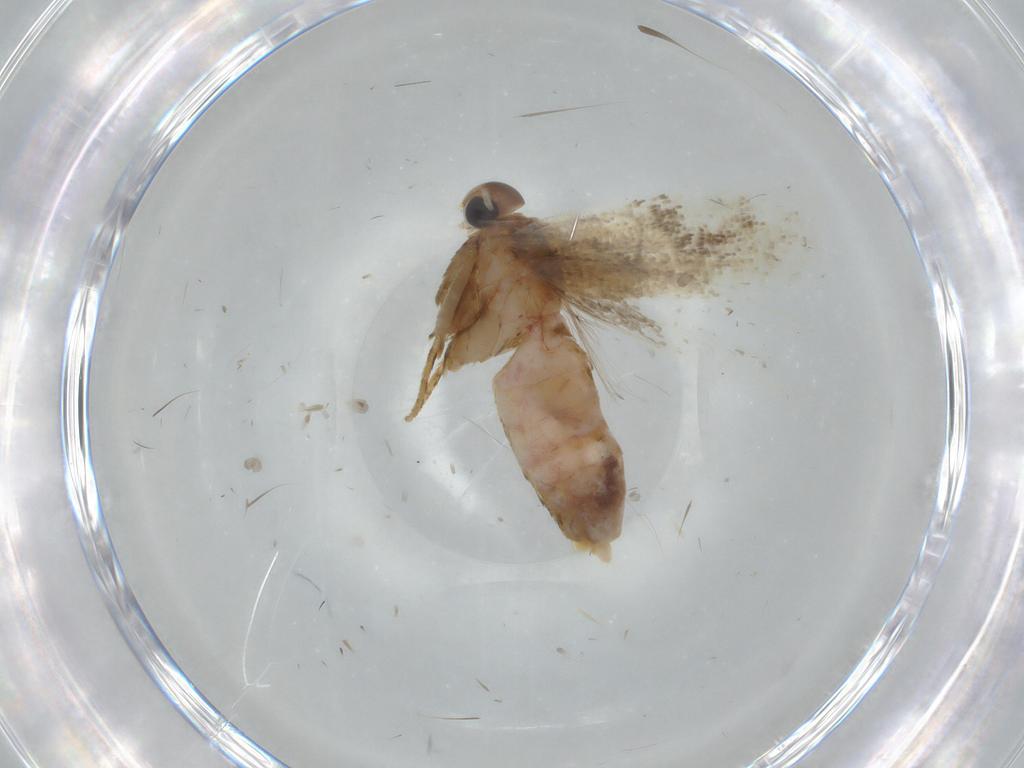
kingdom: Animalia
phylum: Arthropoda
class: Insecta
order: Lepidoptera
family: Gelechiidae
